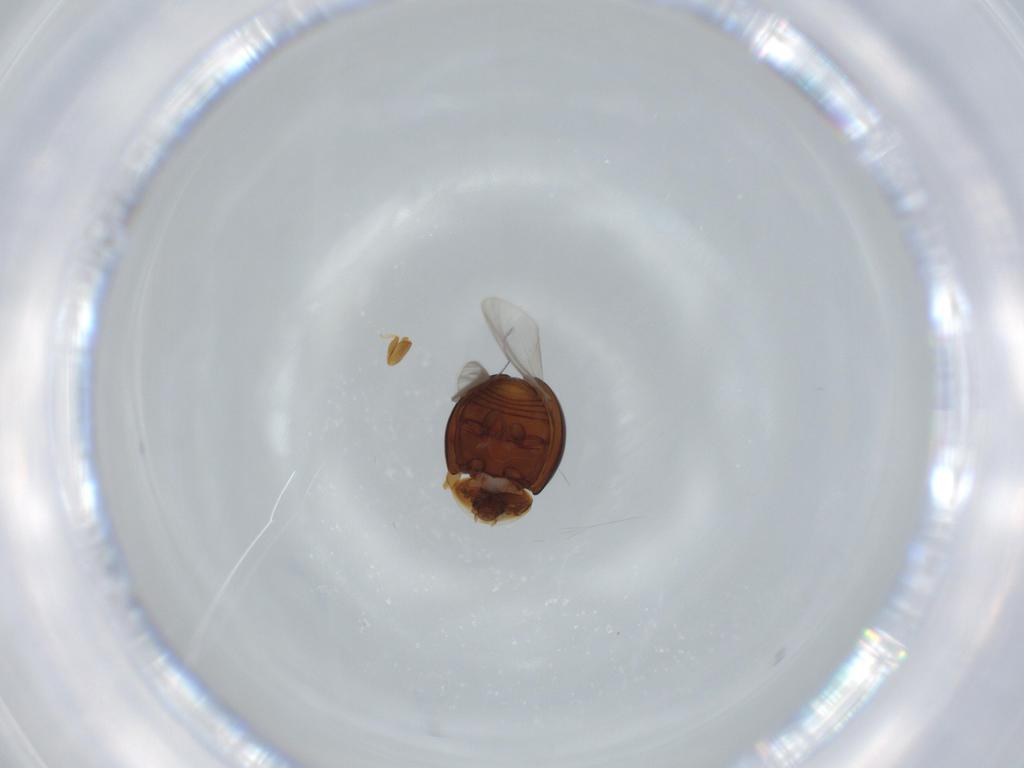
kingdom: Animalia
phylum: Arthropoda
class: Insecta
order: Coleoptera
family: Corylophidae
